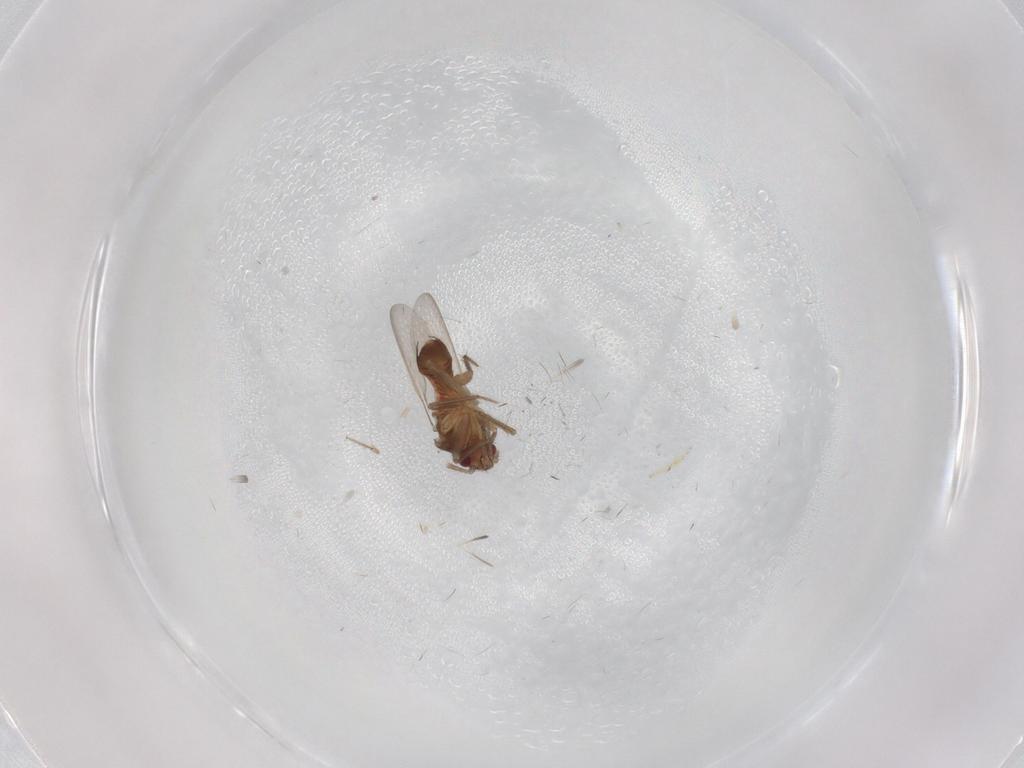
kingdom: Animalia
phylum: Arthropoda
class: Insecta
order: Hemiptera
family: Ceratocombidae
